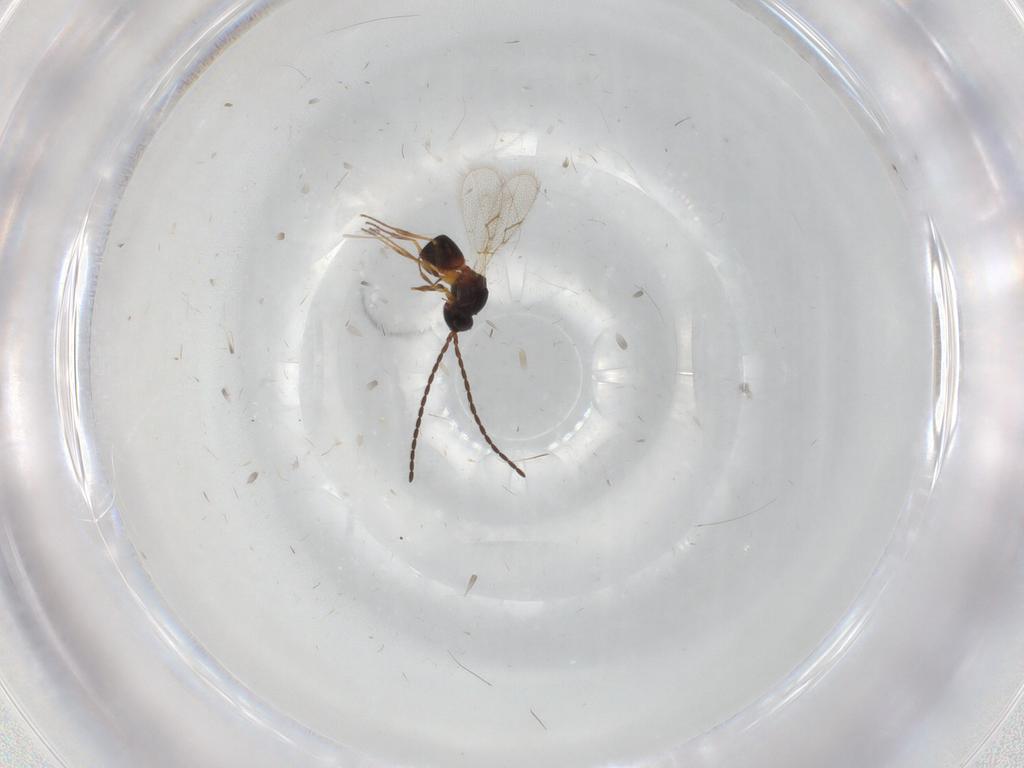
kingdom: Animalia
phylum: Arthropoda
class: Insecta
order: Hymenoptera
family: Figitidae
